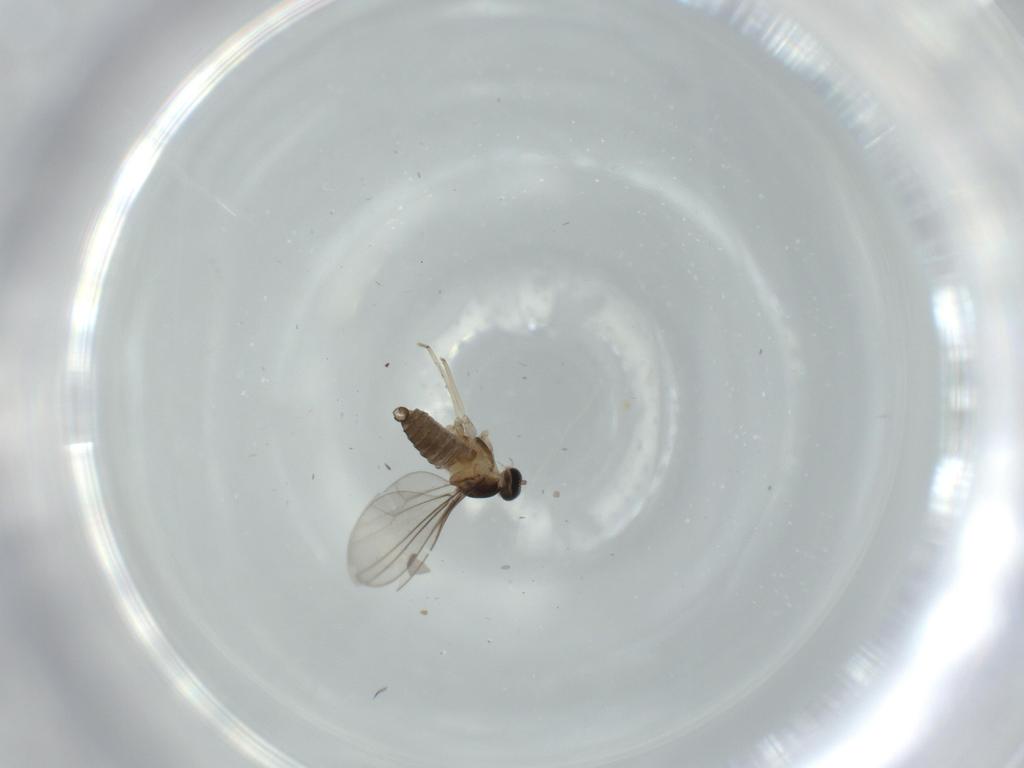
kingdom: Animalia
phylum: Arthropoda
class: Insecta
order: Diptera
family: Cecidomyiidae
